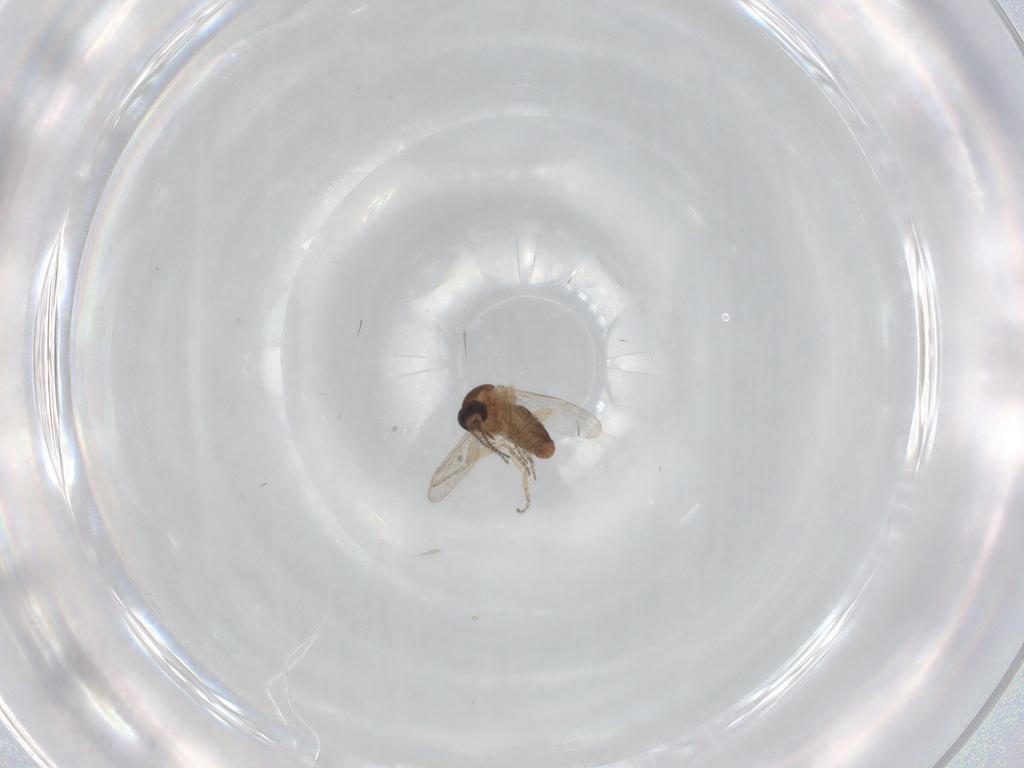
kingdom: Animalia
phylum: Arthropoda
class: Insecta
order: Diptera
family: Ceratopogonidae
